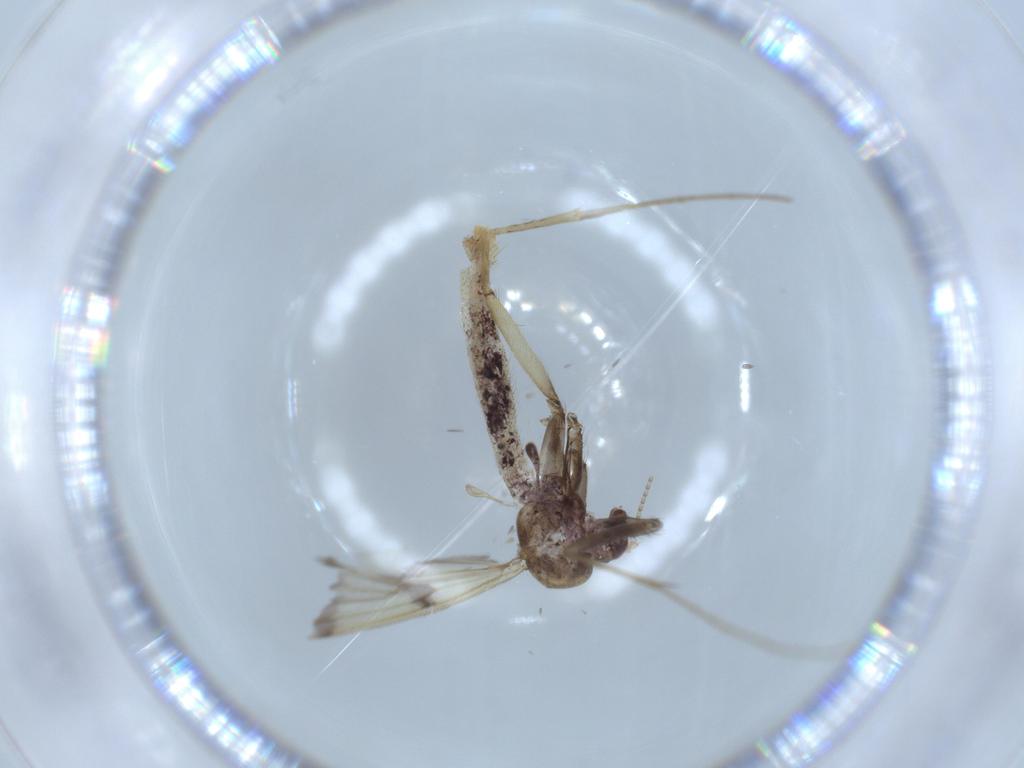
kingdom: Animalia
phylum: Arthropoda
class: Insecta
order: Diptera
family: Mycetophilidae
